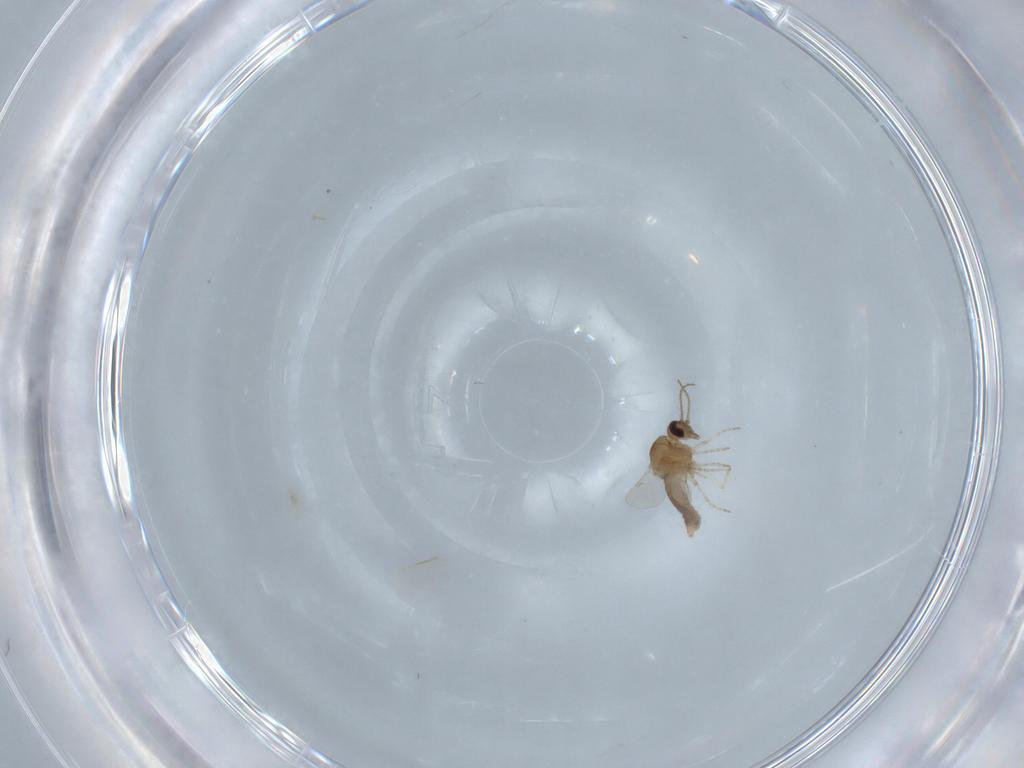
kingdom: Animalia
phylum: Arthropoda
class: Insecta
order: Diptera
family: Ceratopogonidae
